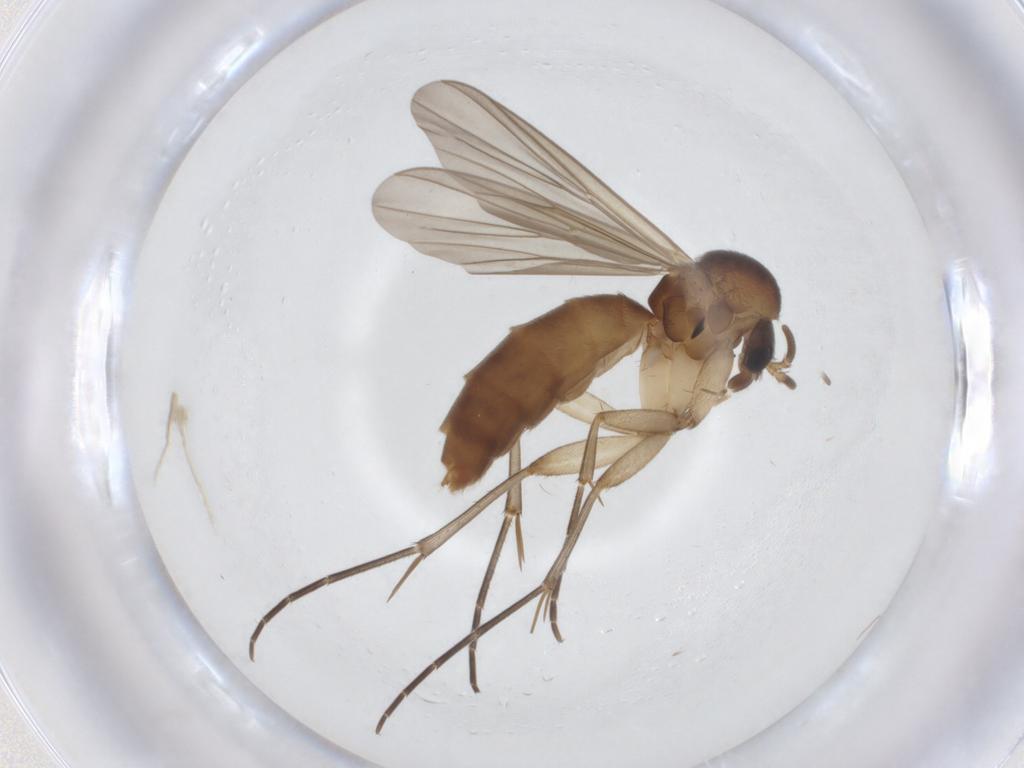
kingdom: Animalia
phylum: Arthropoda
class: Insecta
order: Diptera
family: Mycetophilidae
